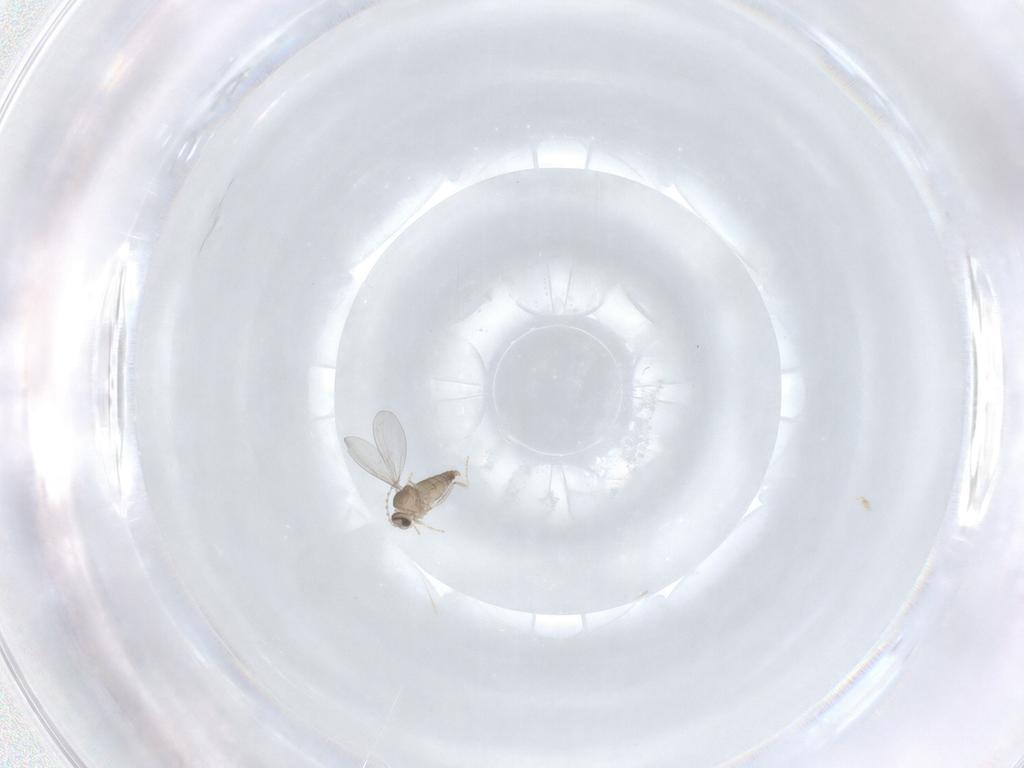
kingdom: Animalia
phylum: Arthropoda
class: Insecta
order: Diptera
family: Cecidomyiidae
